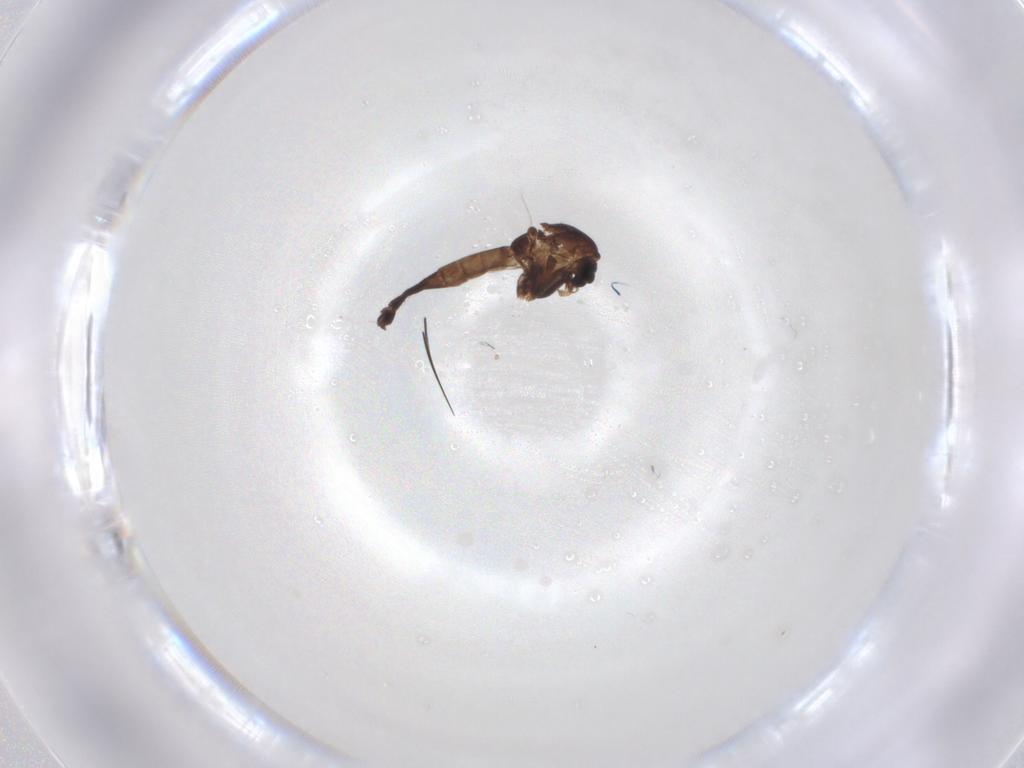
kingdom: Animalia
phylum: Arthropoda
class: Insecta
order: Diptera
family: Chironomidae
